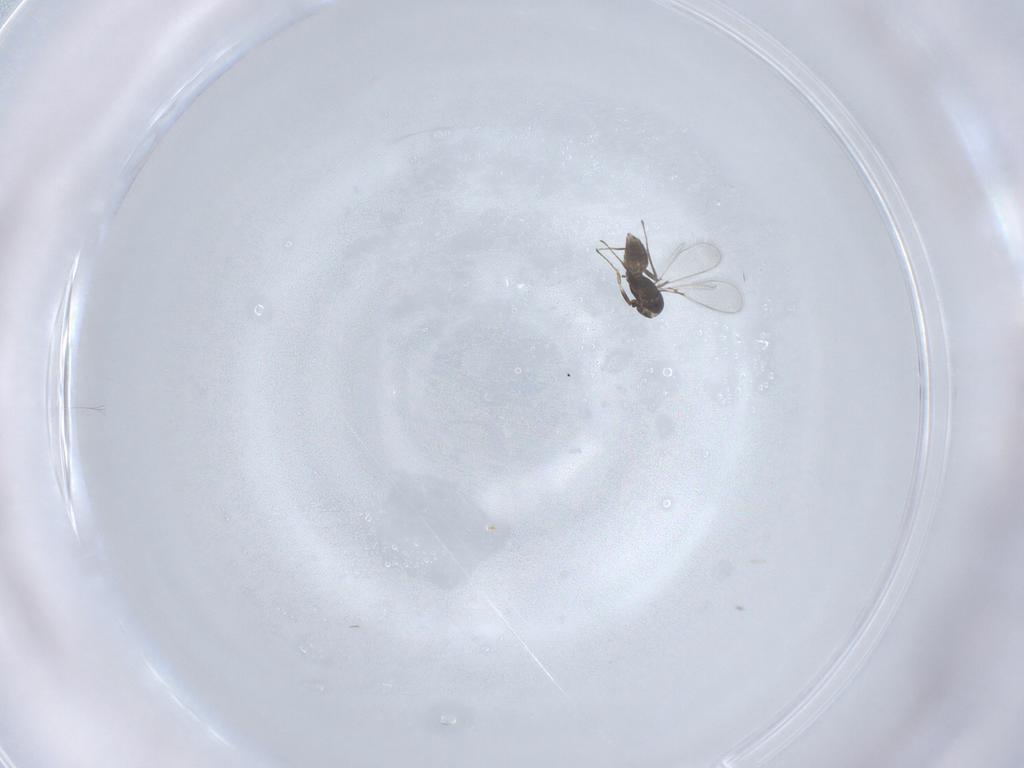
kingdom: Animalia
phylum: Arthropoda
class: Insecta
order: Hymenoptera
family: Mymaridae
